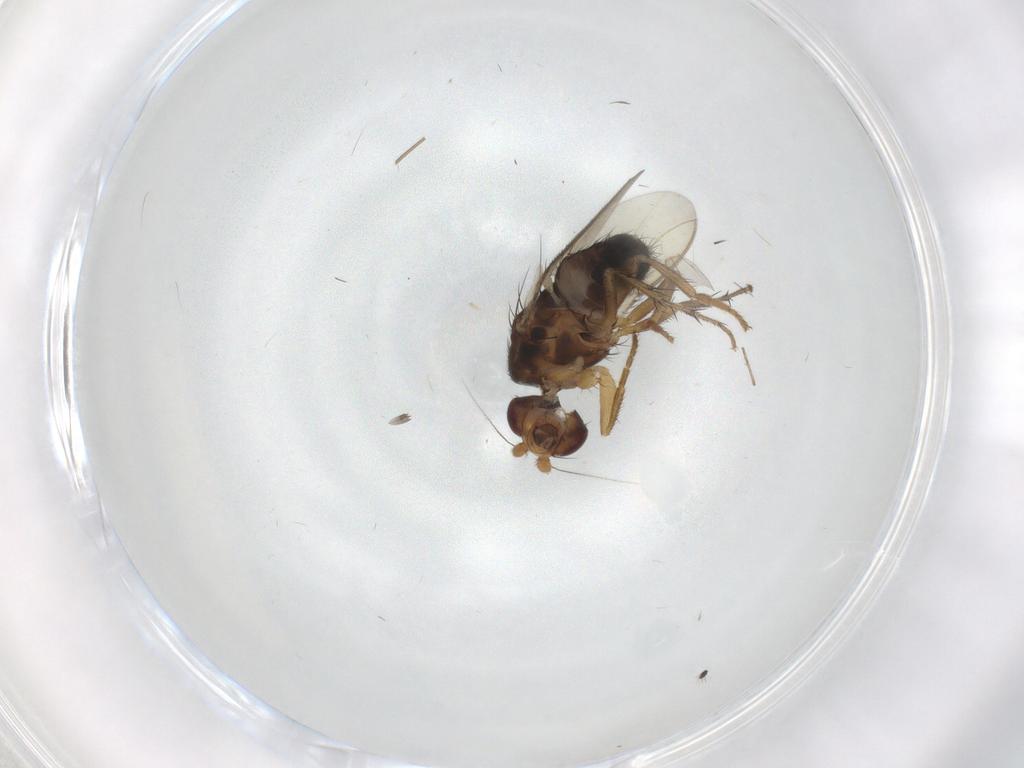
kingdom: Animalia
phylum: Arthropoda
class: Insecta
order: Diptera
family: Sphaeroceridae
